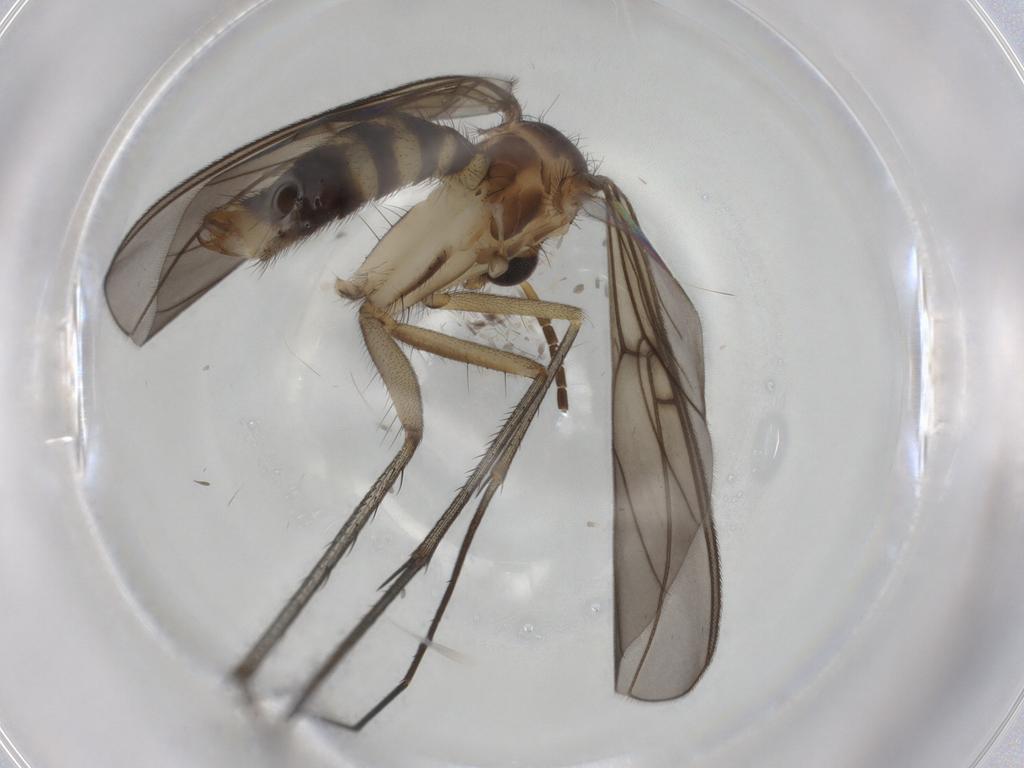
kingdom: Animalia
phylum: Arthropoda
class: Insecta
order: Diptera
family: Mycetophilidae
